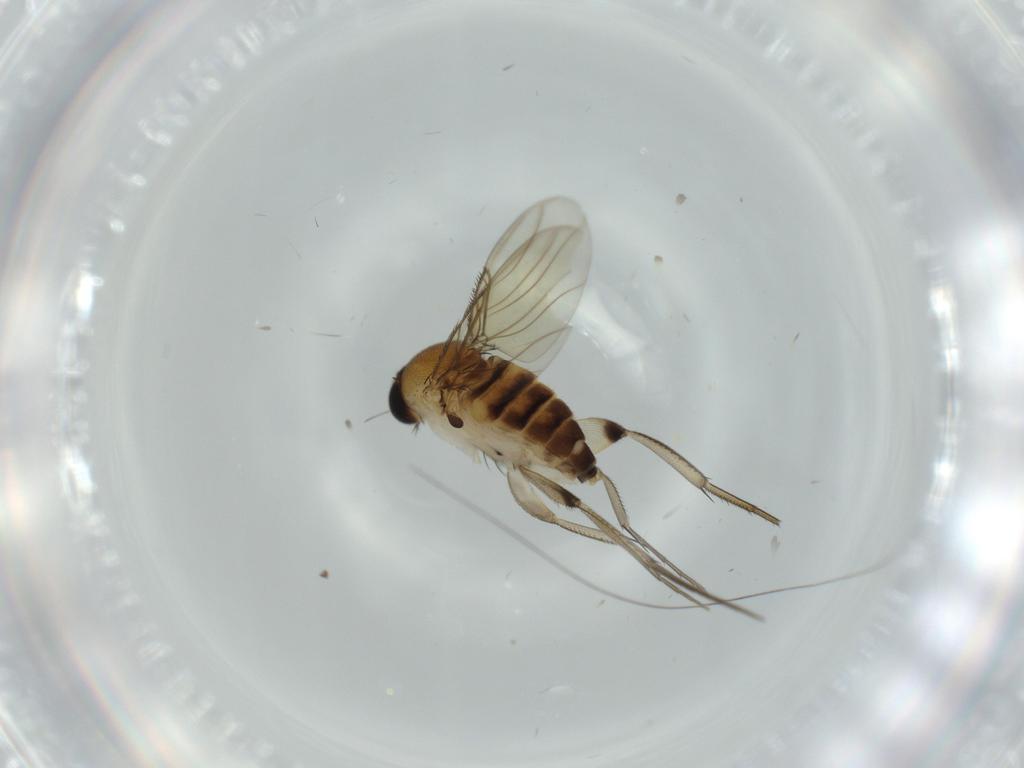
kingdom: Animalia
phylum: Arthropoda
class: Insecta
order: Diptera
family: Phoridae
